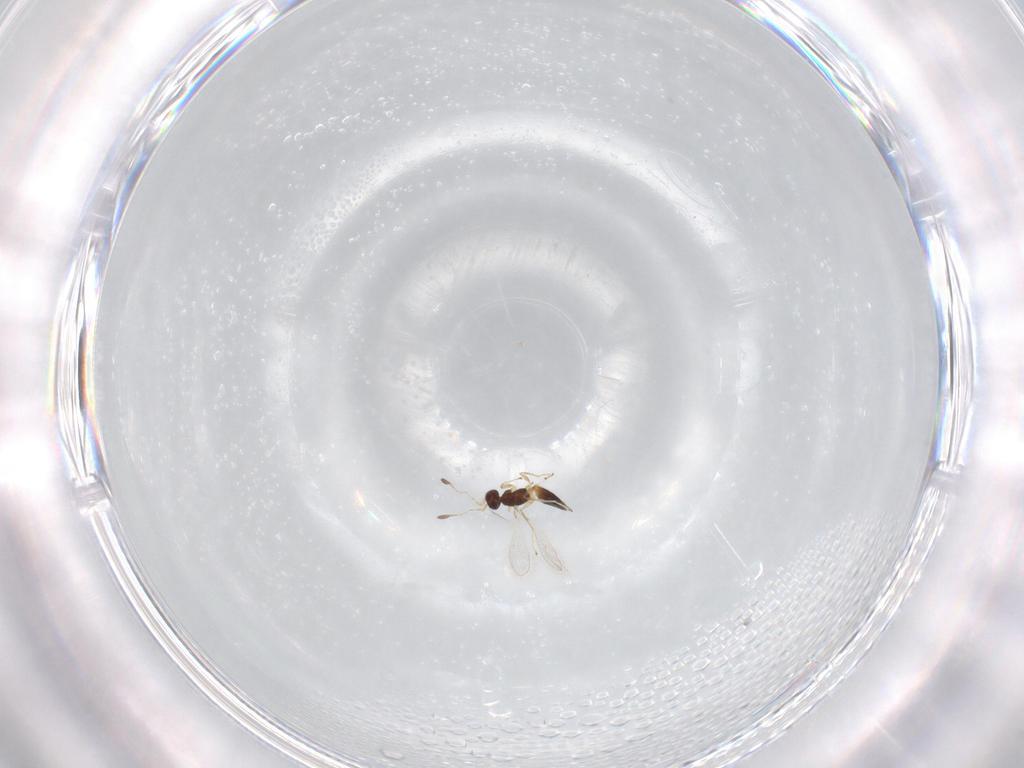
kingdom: Animalia
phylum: Arthropoda
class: Insecta
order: Hymenoptera
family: Mymaridae
